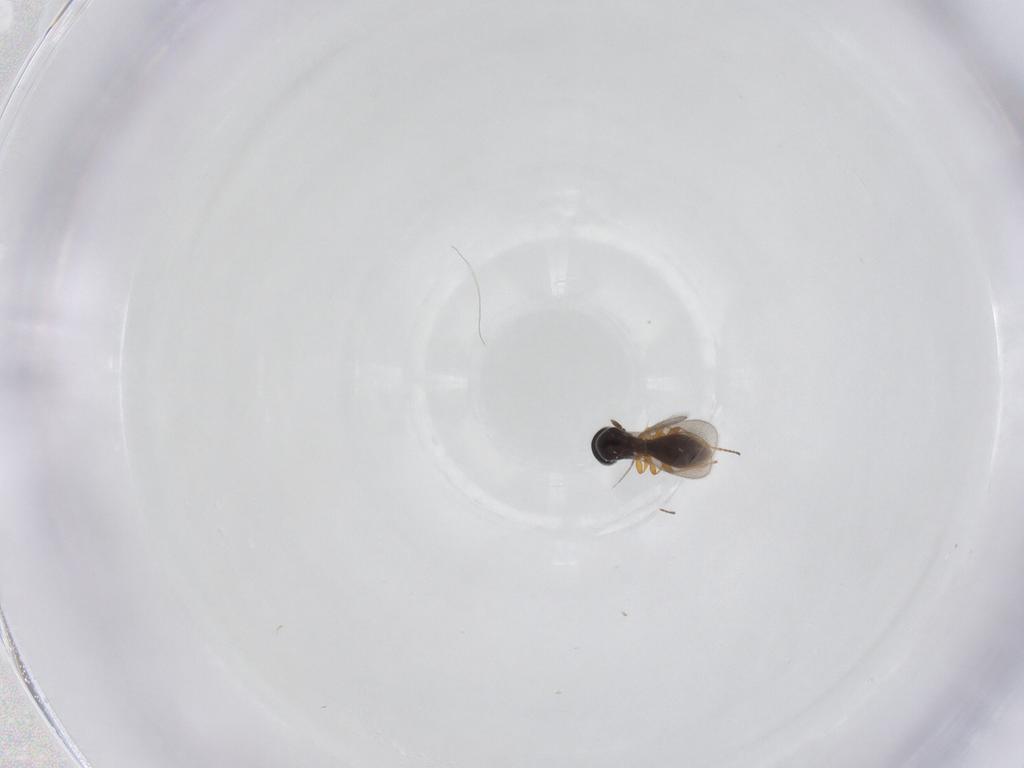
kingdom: Animalia
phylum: Arthropoda
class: Insecta
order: Hymenoptera
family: Platygastridae
